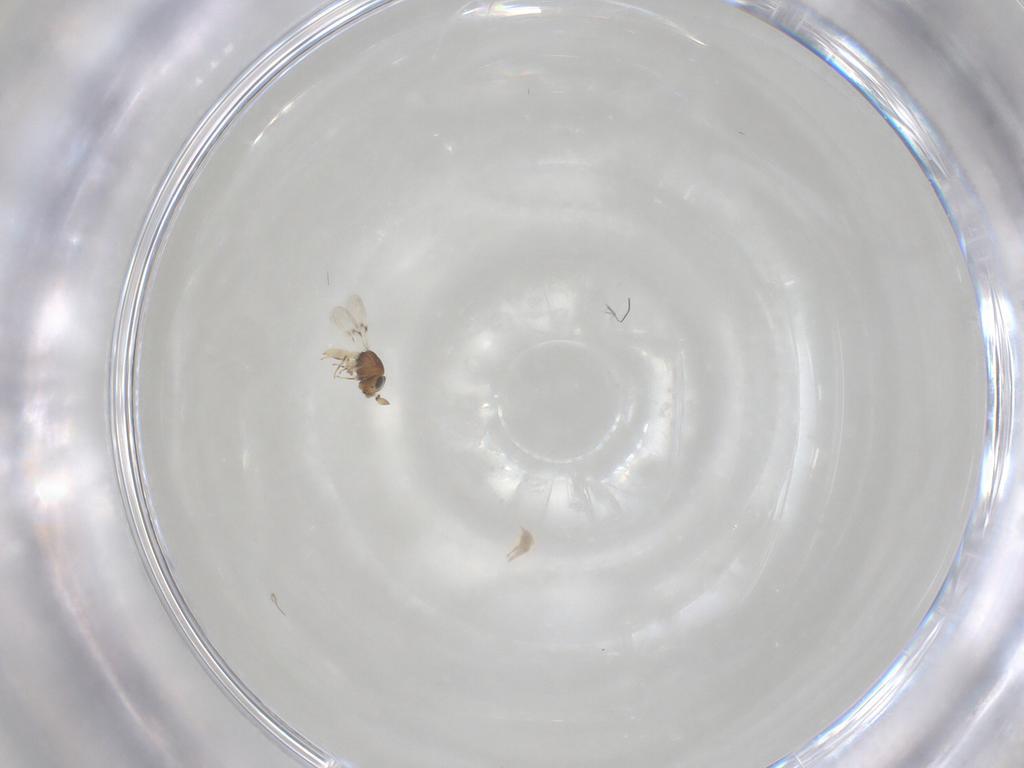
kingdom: Animalia
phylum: Arthropoda
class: Insecta
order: Hymenoptera
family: Scelionidae
